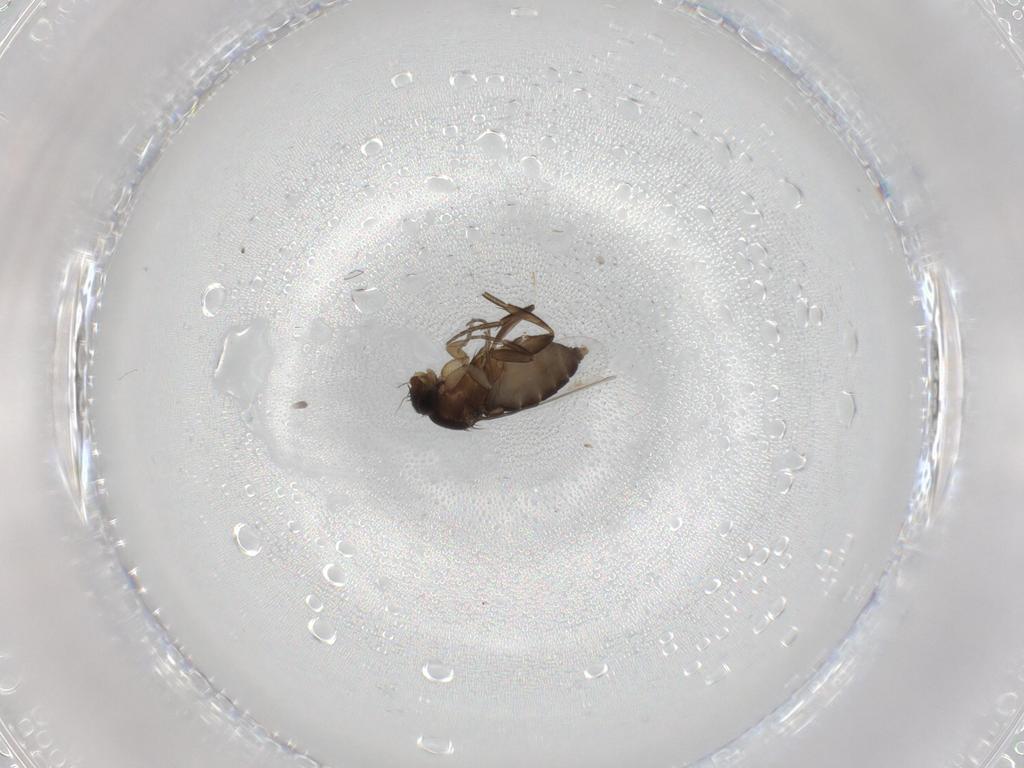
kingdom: Animalia
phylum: Arthropoda
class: Insecta
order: Diptera
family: Phoridae
